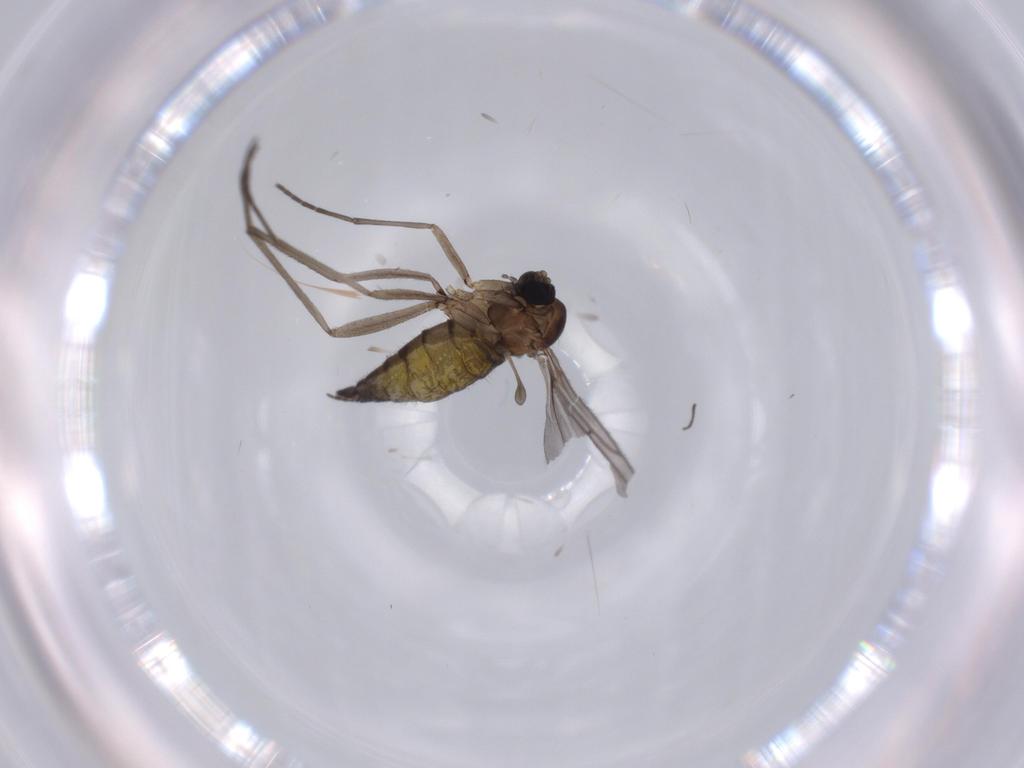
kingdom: Animalia
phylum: Arthropoda
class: Insecta
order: Diptera
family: Sciaridae
